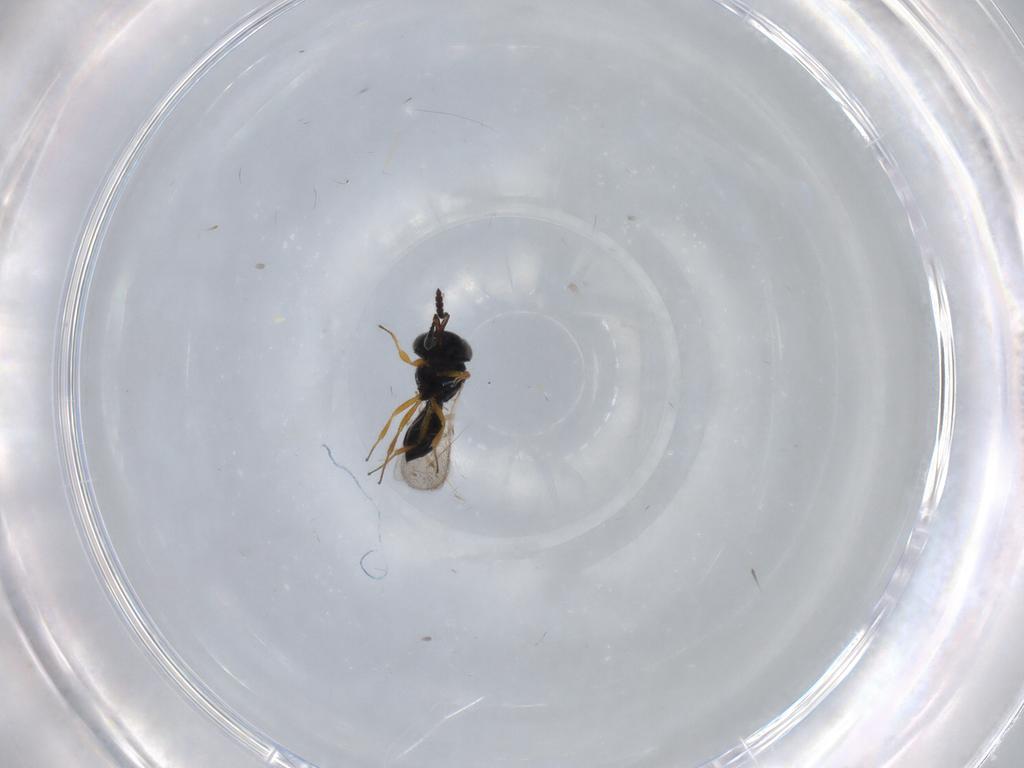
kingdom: Animalia
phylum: Arthropoda
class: Insecta
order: Hymenoptera
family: Scelionidae
